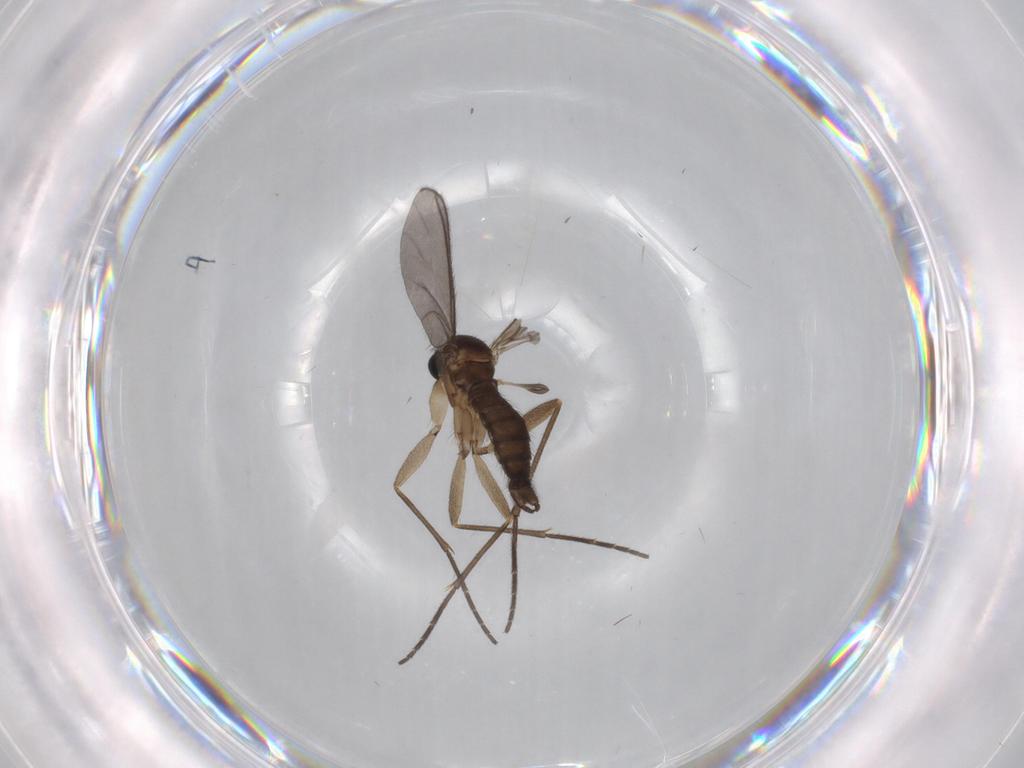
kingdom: Animalia
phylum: Arthropoda
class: Insecta
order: Diptera
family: Sciaridae
